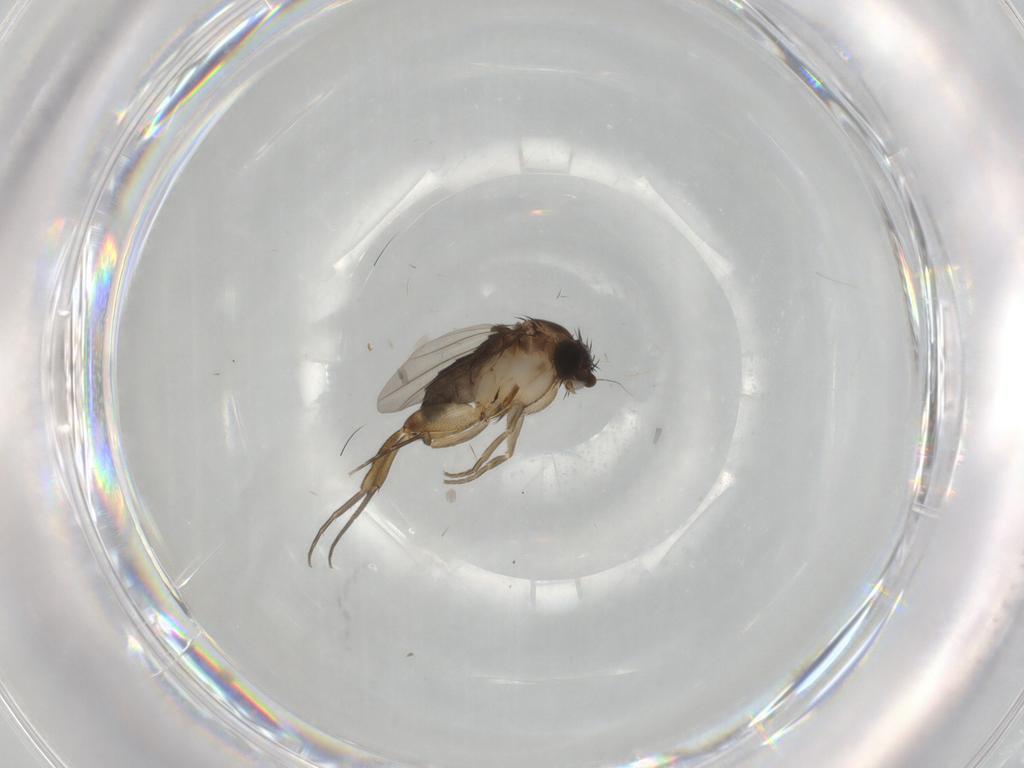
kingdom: Animalia
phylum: Arthropoda
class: Insecta
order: Diptera
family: Phoridae
